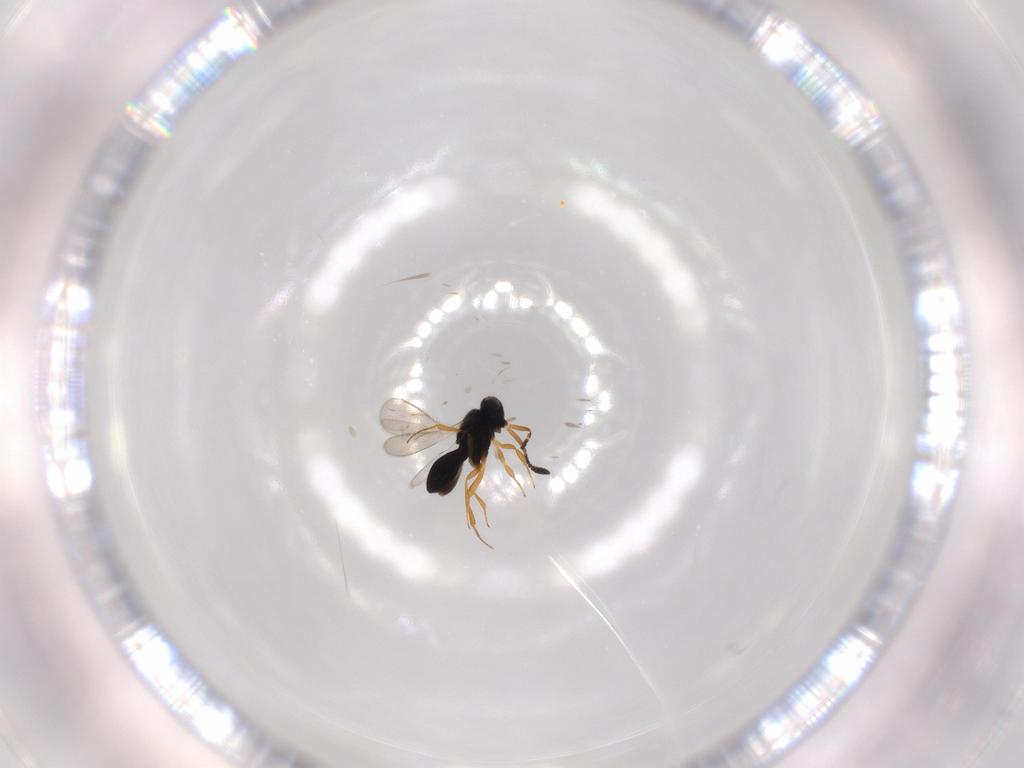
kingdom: Animalia
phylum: Arthropoda
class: Insecta
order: Hymenoptera
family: Scelionidae
